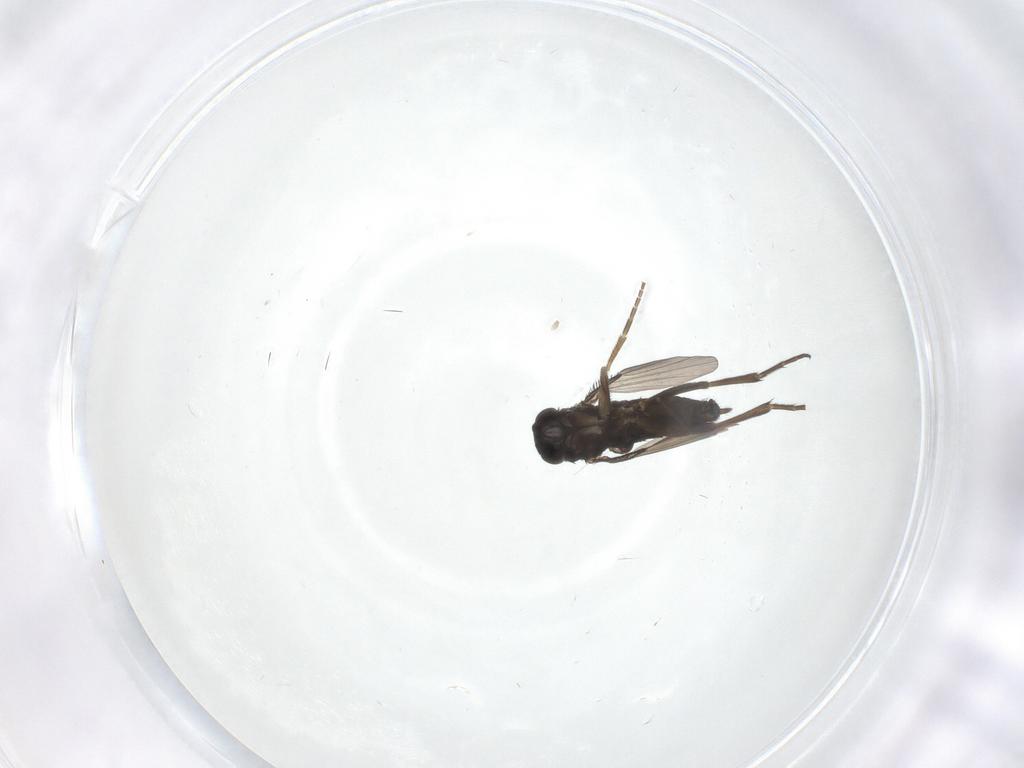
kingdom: Animalia
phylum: Arthropoda
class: Insecta
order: Diptera
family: Phoridae
